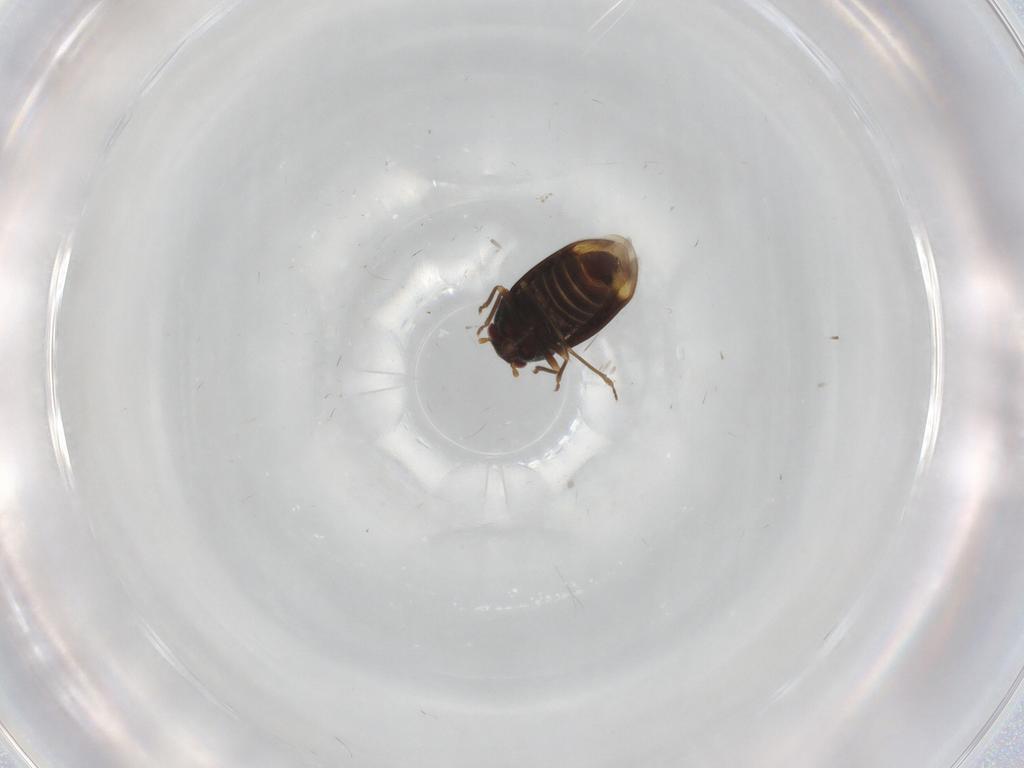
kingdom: Animalia
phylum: Arthropoda
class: Insecta
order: Hemiptera
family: Schizopteridae
